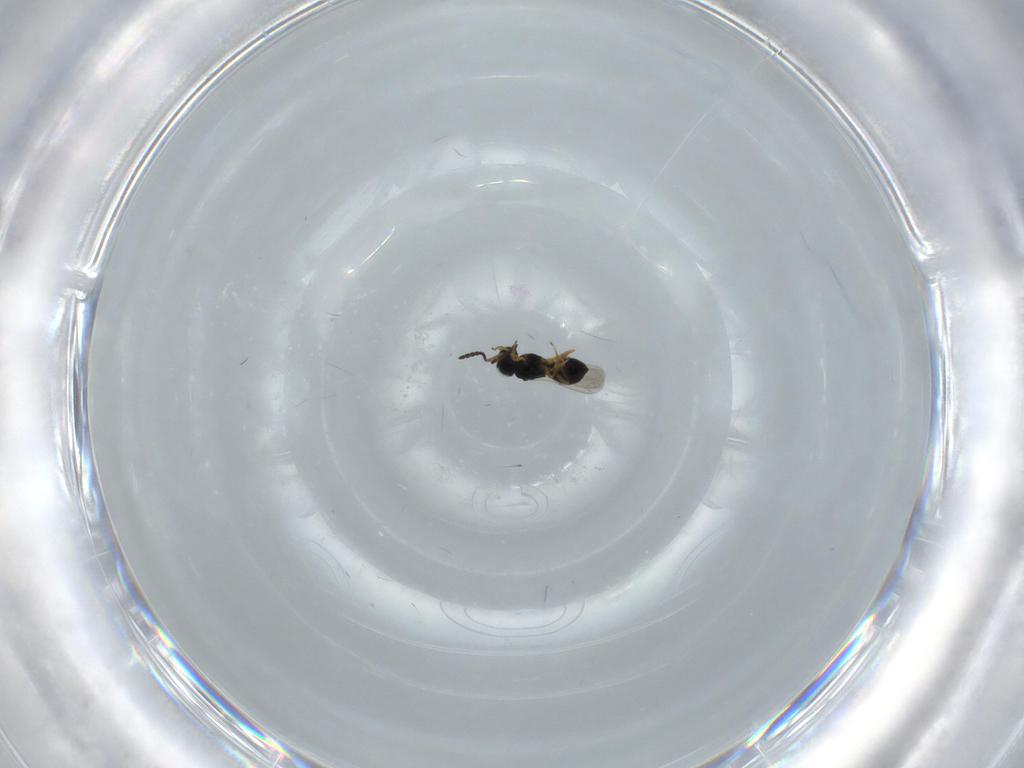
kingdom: Animalia
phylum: Arthropoda
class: Insecta
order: Hymenoptera
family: Scelionidae
